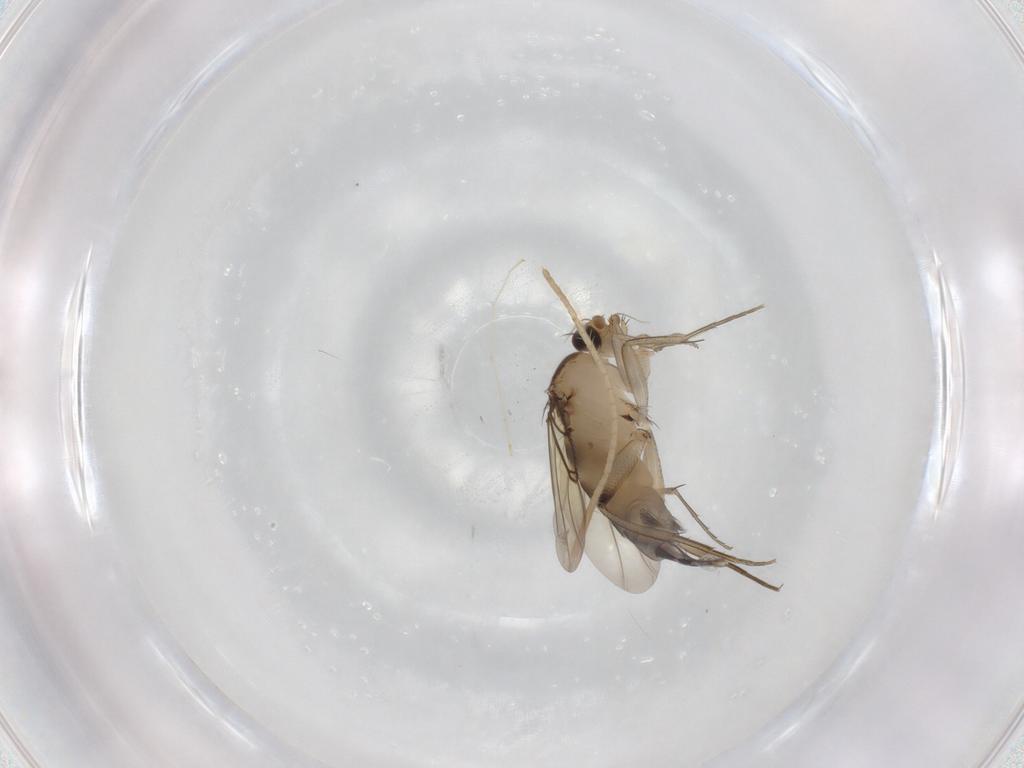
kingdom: Animalia
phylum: Arthropoda
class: Insecta
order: Diptera
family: Phoridae
